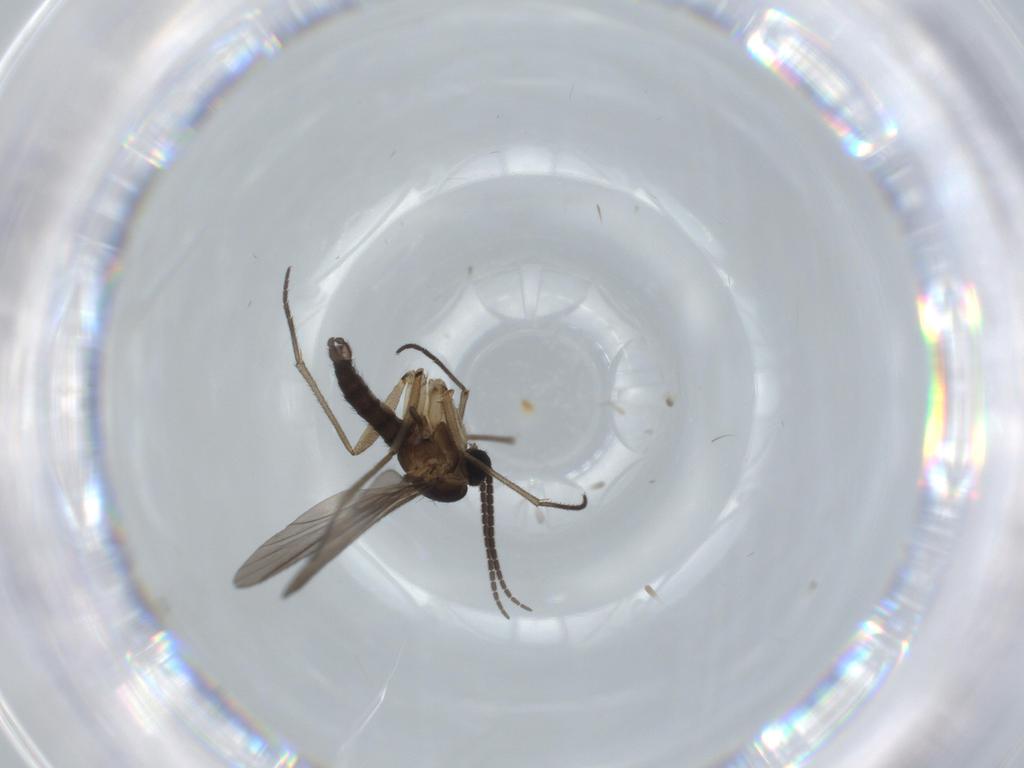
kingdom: Animalia
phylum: Arthropoda
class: Insecta
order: Diptera
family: Sciaridae
